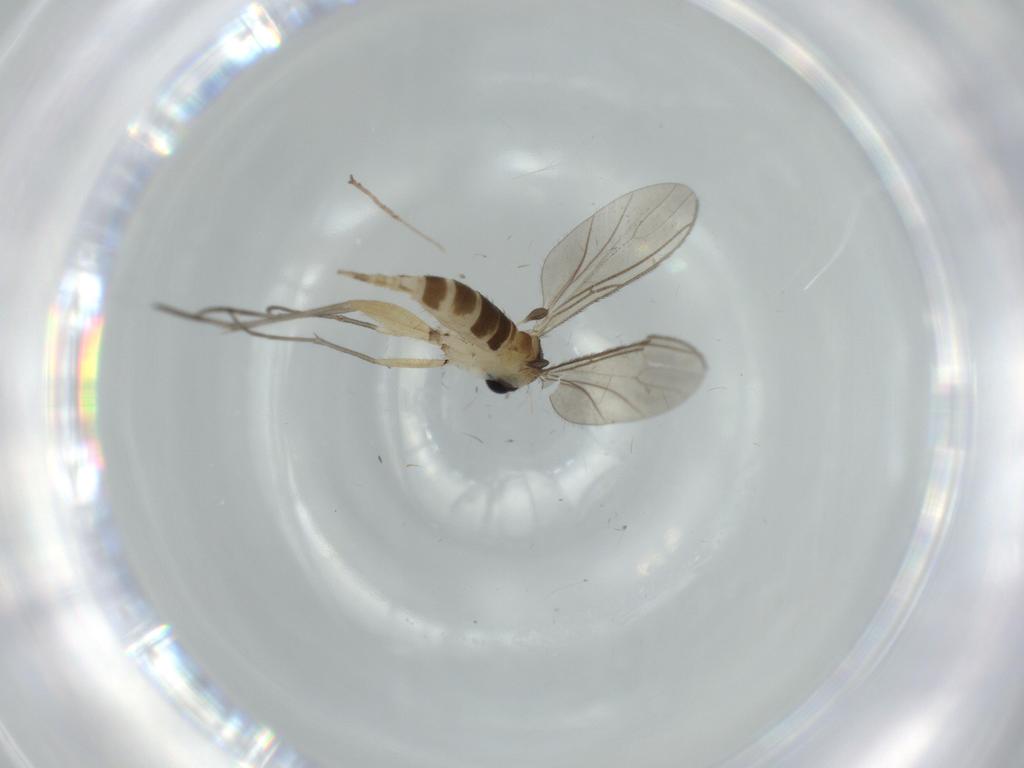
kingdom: Animalia
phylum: Arthropoda
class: Insecta
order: Diptera
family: Sciaridae
